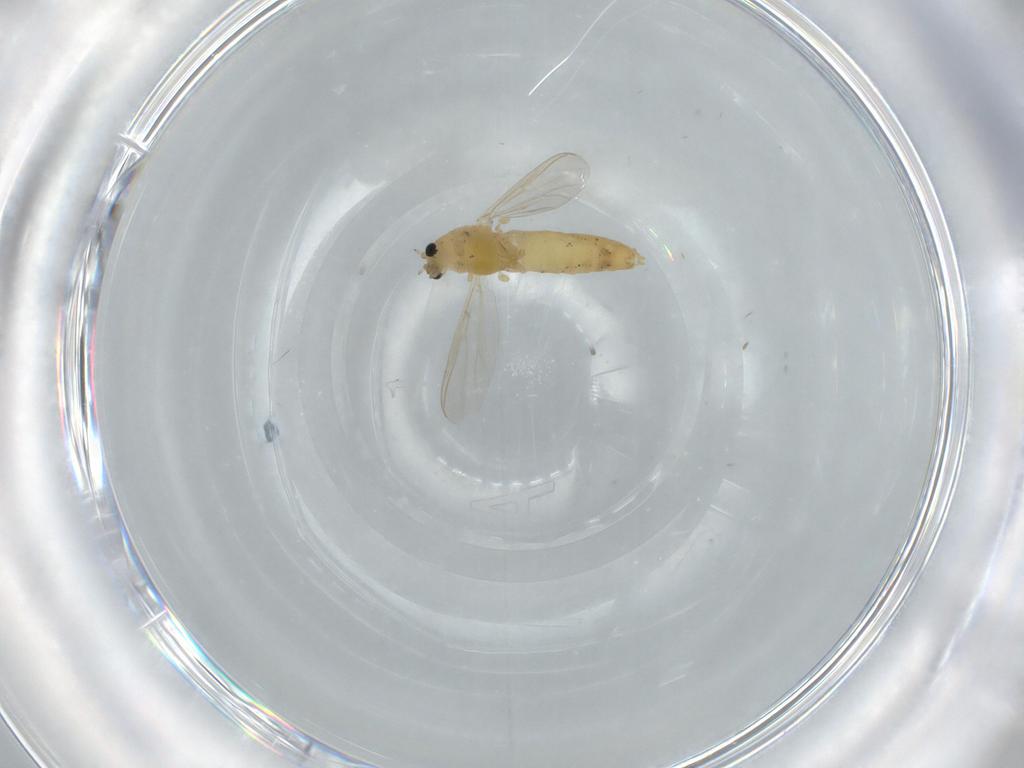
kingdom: Animalia
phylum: Arthropoda
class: Insecta
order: Diptera
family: Chironomidae
